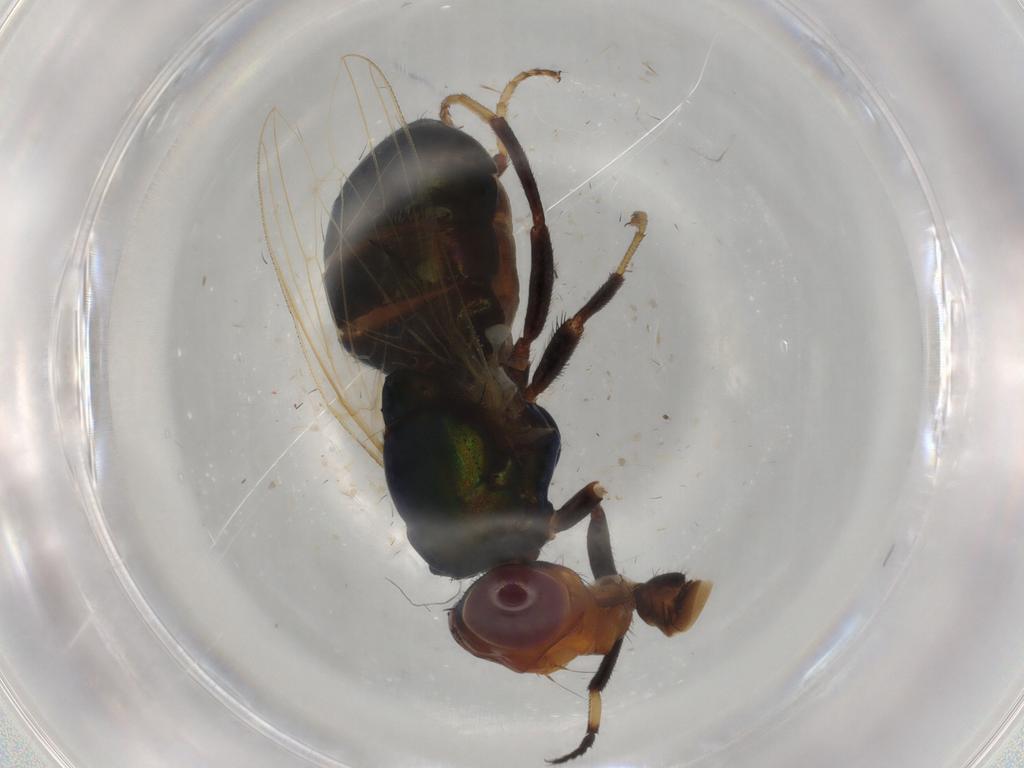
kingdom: Animalia
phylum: Arthropoda
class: Insecta
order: Diptera
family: Ulidiidae
